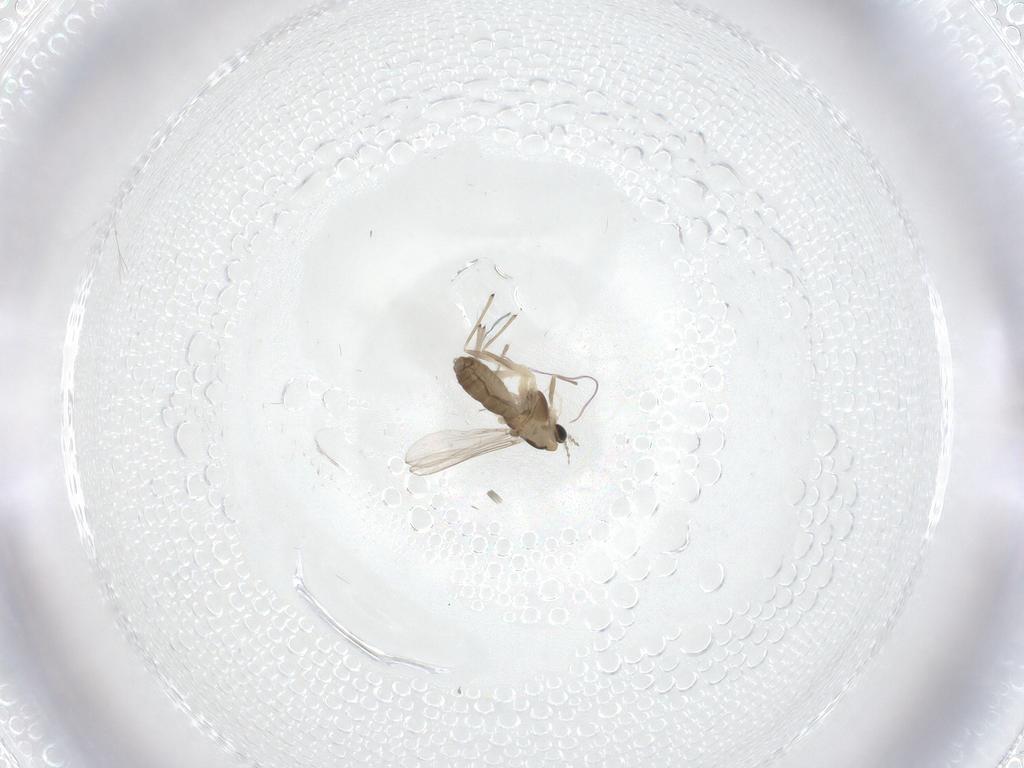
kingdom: Animalia
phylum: Arthropoda
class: Insecta
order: Diptera
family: Chironomidae
